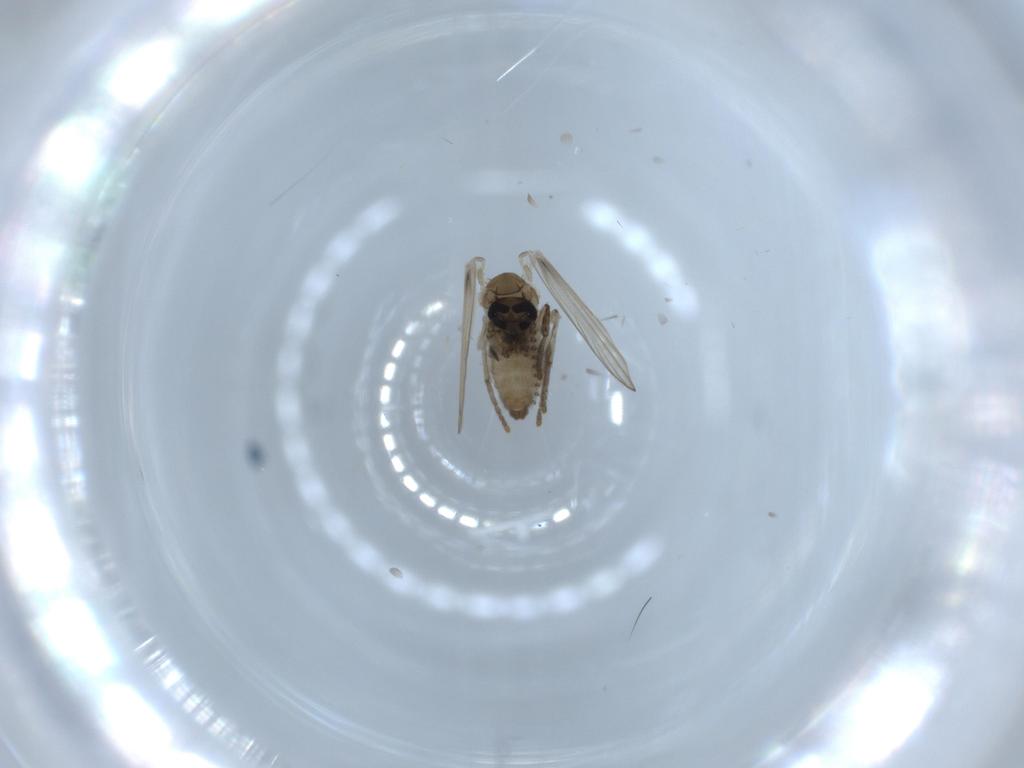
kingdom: Animalia
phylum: Arthropoda
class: Insecta
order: Diptera
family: Psychodidae
